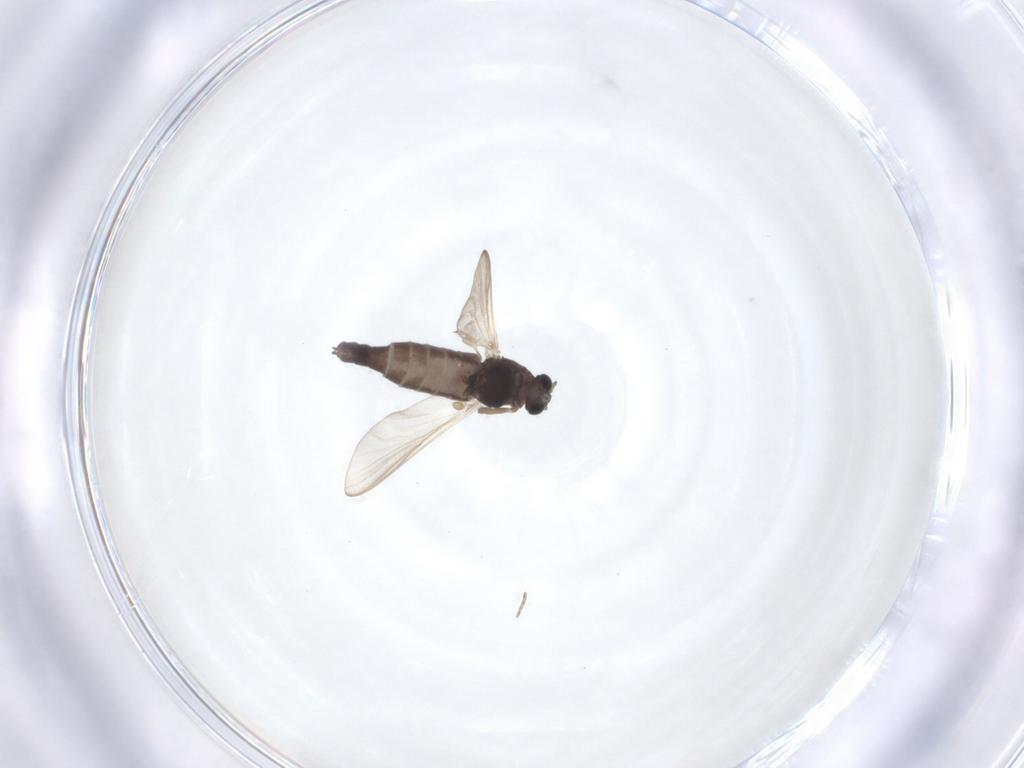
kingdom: Animalia
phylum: Arthropoda
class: Insecta
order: Diptera
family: Chironomidae
